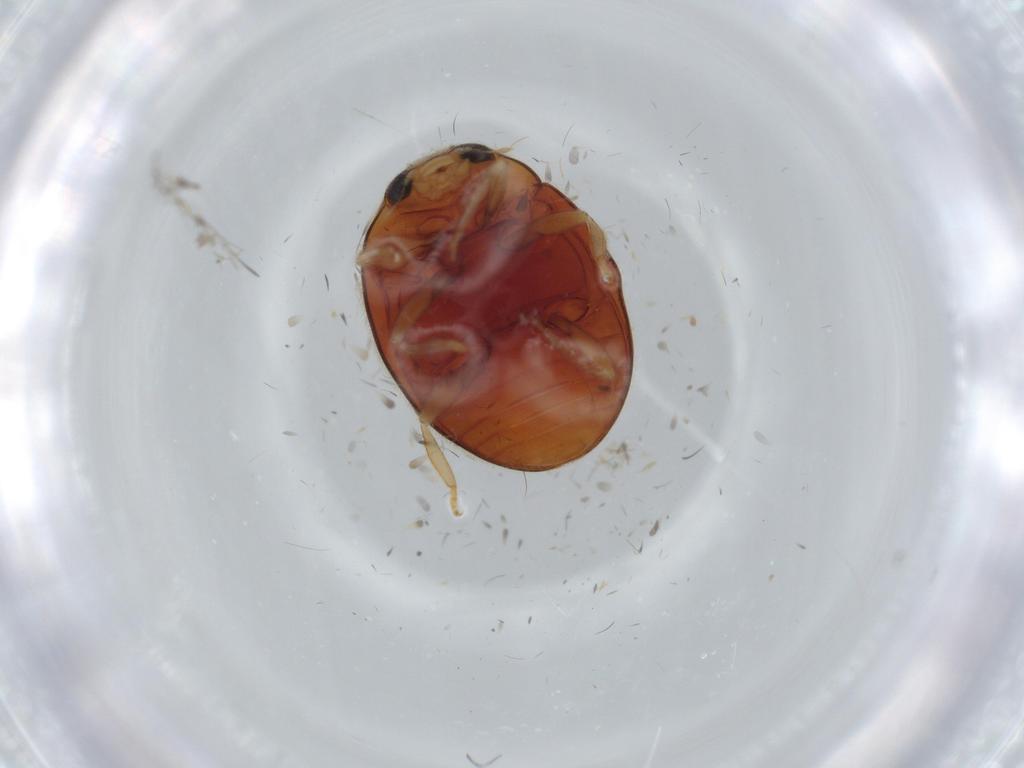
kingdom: Animalia
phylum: Arthropoda
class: Insecta
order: Coleoptera
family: Coccinellidae
